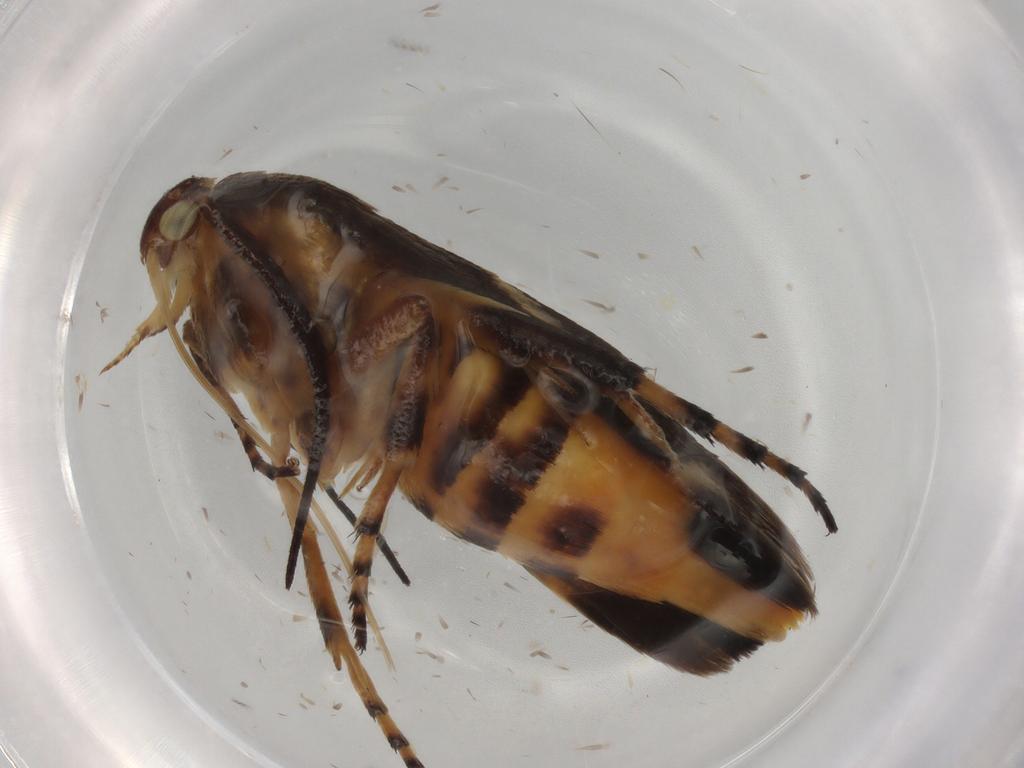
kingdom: Animalia
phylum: Arthropoda
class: Insecta
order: Lepidoptera
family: Scythrididae
